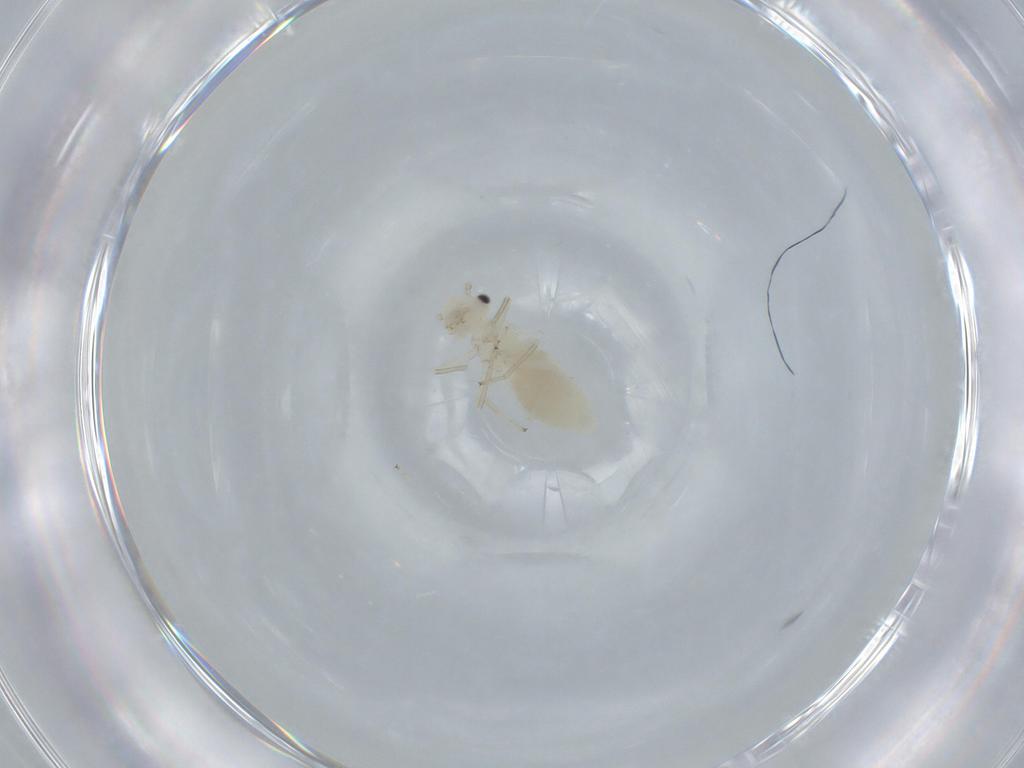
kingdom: Animalia
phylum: Arthropoda
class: Insecta
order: Psocodea
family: Caeciliusidae
